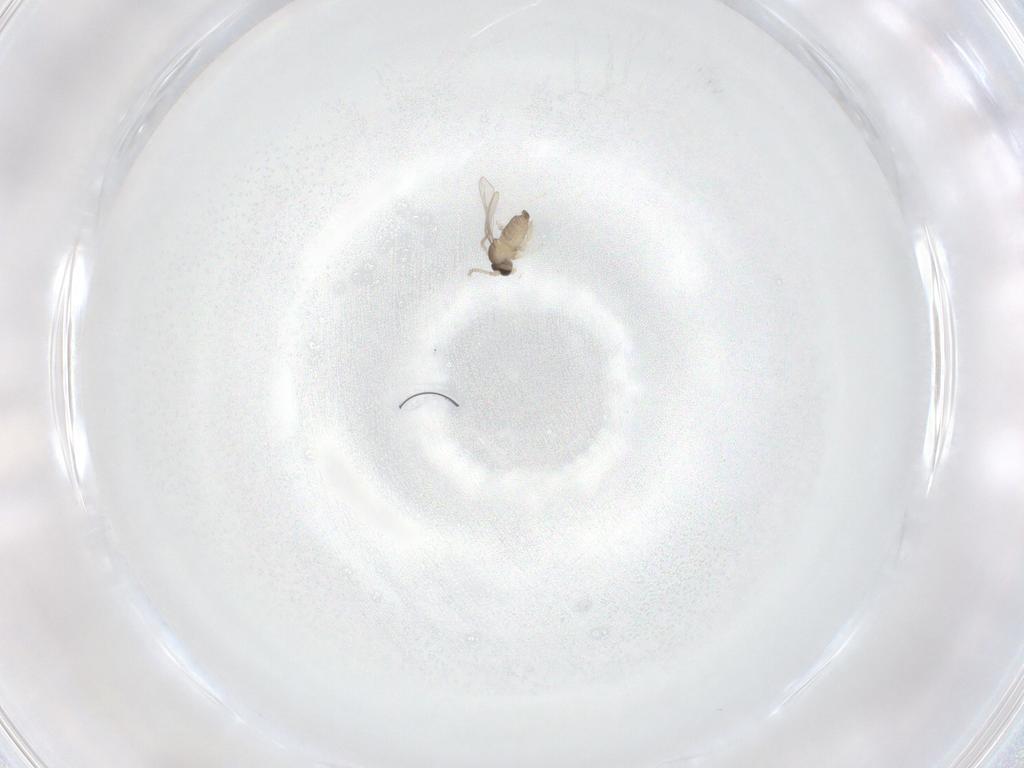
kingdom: Animalia
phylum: Arthropoda
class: Insecta
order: Diptera
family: Cecidomyiidae
